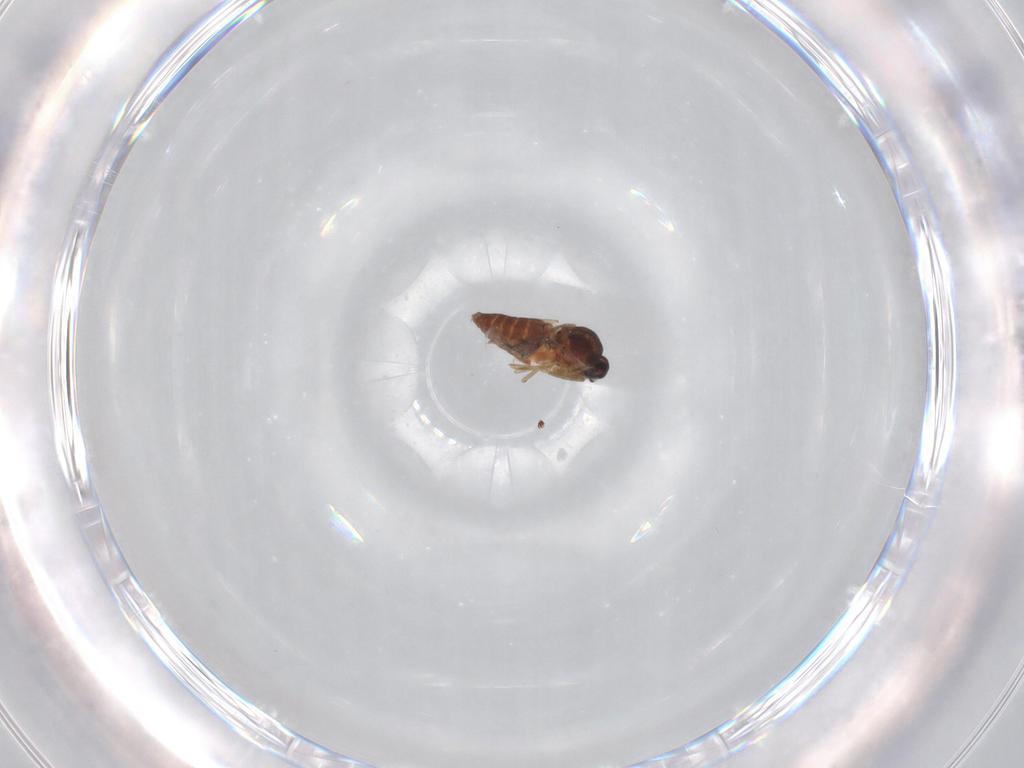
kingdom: Animalia
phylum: Arthropoda
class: Insecta
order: Diptera
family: Ceratopogonidae
